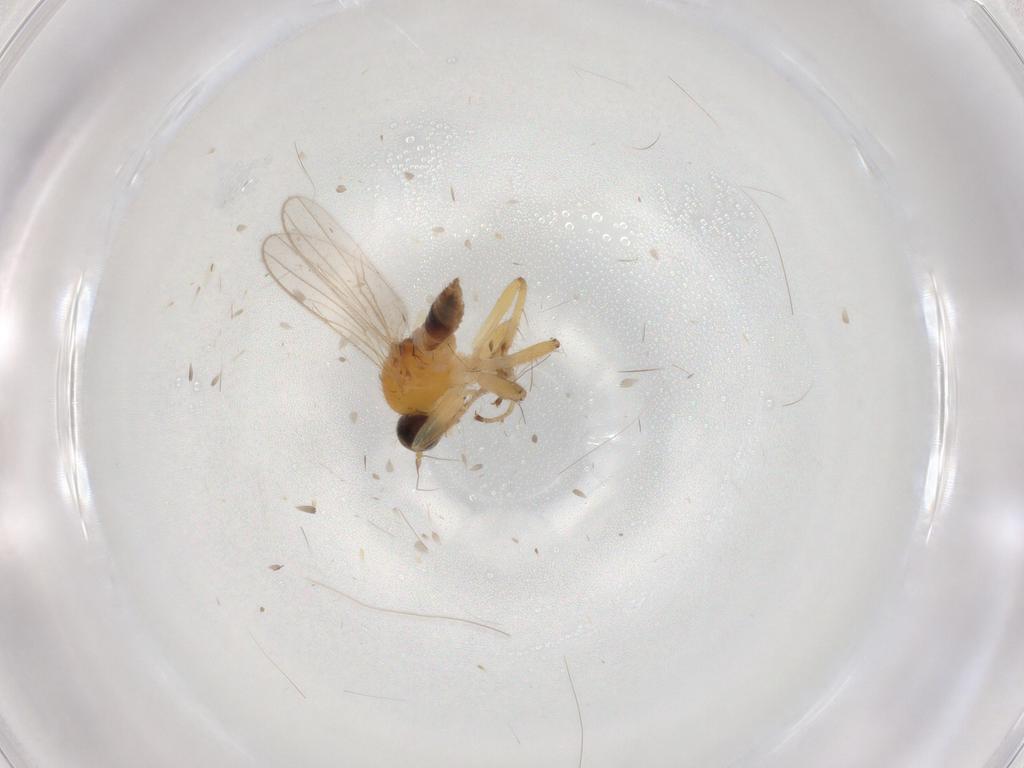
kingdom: Animalia
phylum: Arthropoda
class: Insecta
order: Diptera
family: Hybotidae
